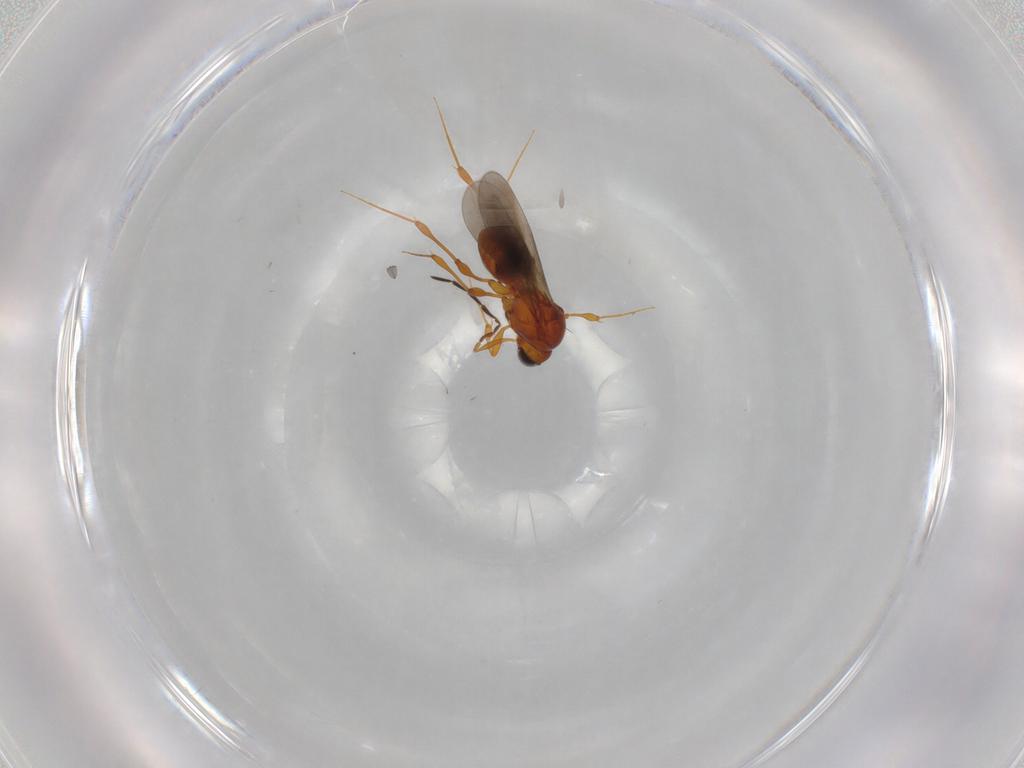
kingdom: Animalia
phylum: Arthropoda
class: Insecta
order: Hymenoptera
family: Platygastridae
